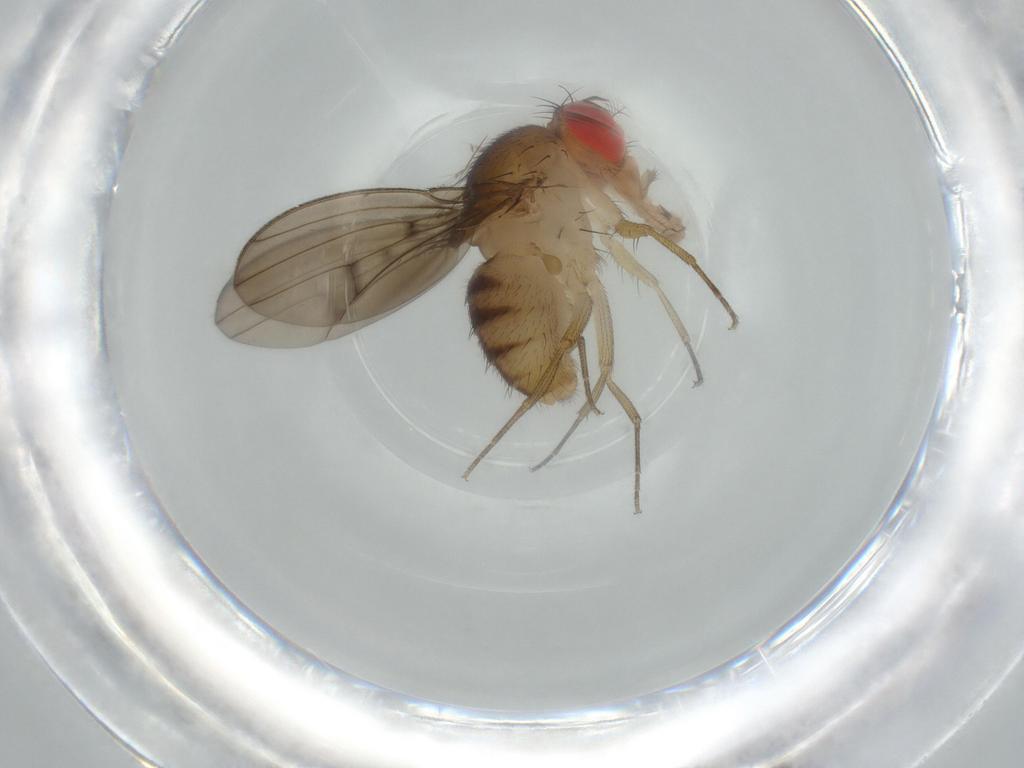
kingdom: Animalia
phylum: Arthropoda
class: Insecta
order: Diptera
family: Drosophilidae
